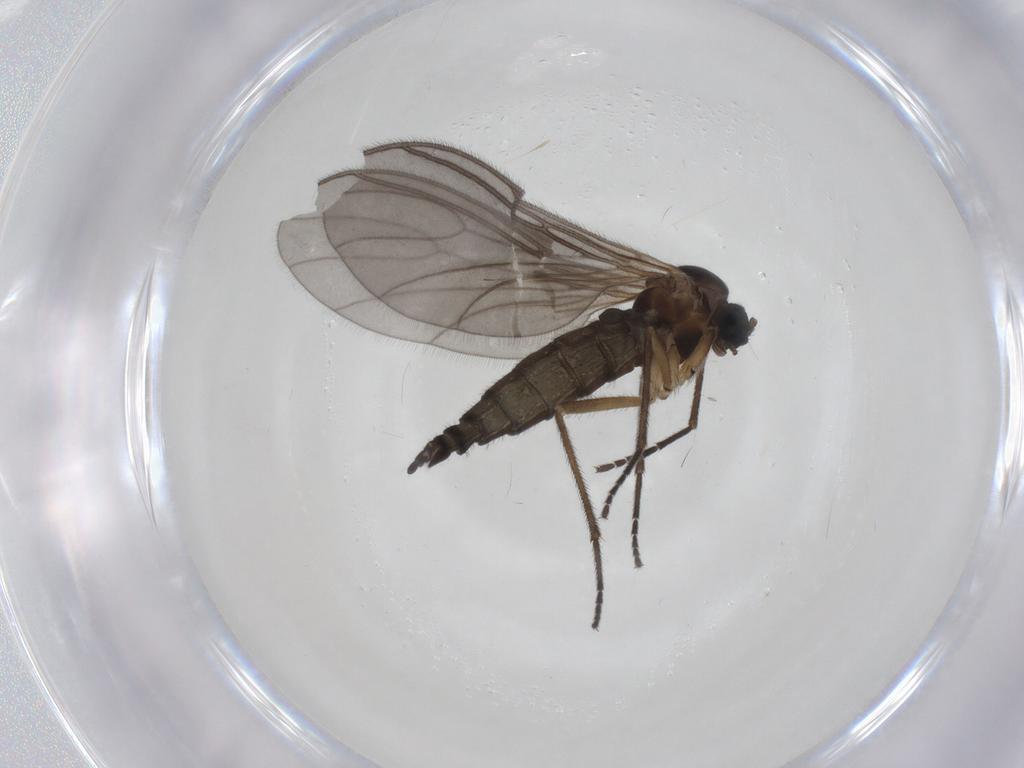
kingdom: Animalia
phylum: Arthropoda
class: Insecta
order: Diptera
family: Sciaridae
